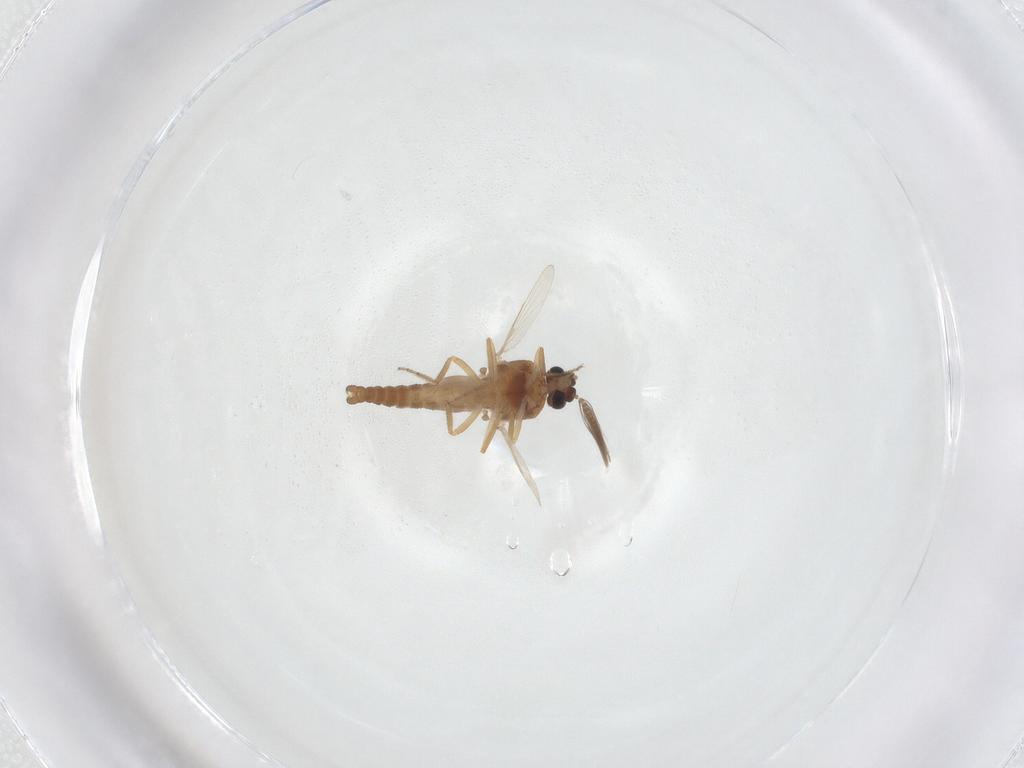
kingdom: Animalia
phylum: Arthropoda
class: Insecta
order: Diptera
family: Ceratopogonidae
